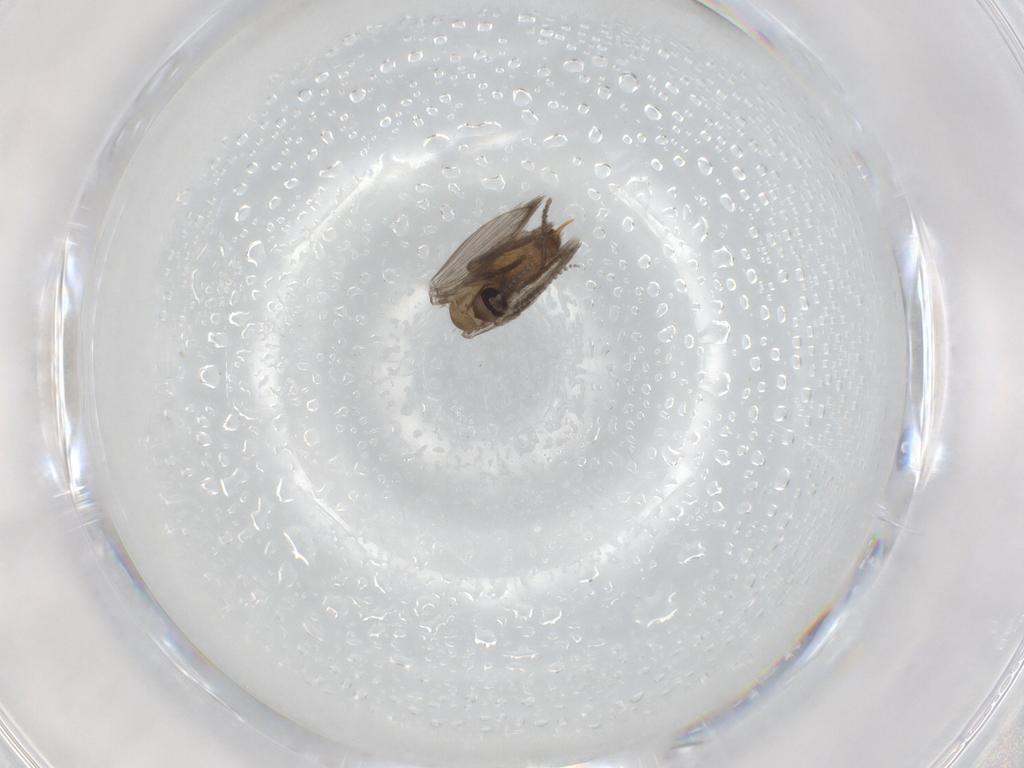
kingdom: Animalia
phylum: Arthropoda
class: Insecta
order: Diptera
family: Psychodidae
